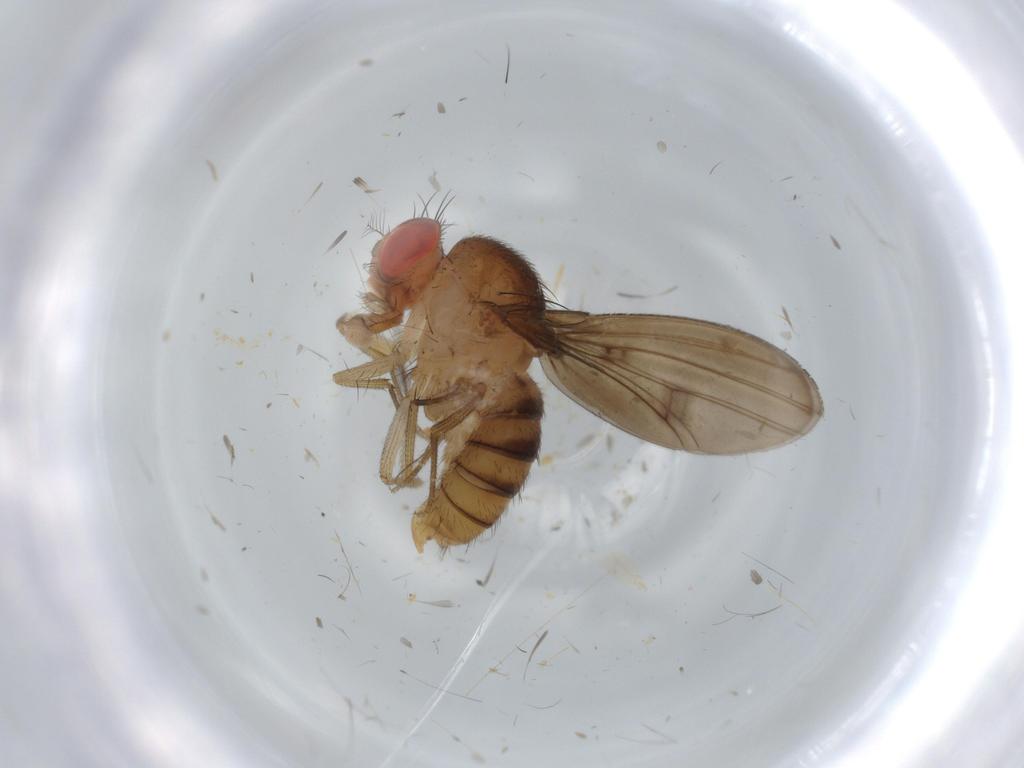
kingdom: Animalia
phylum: Arthropoda
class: Insecta
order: Diptera
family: Drosophilidae
